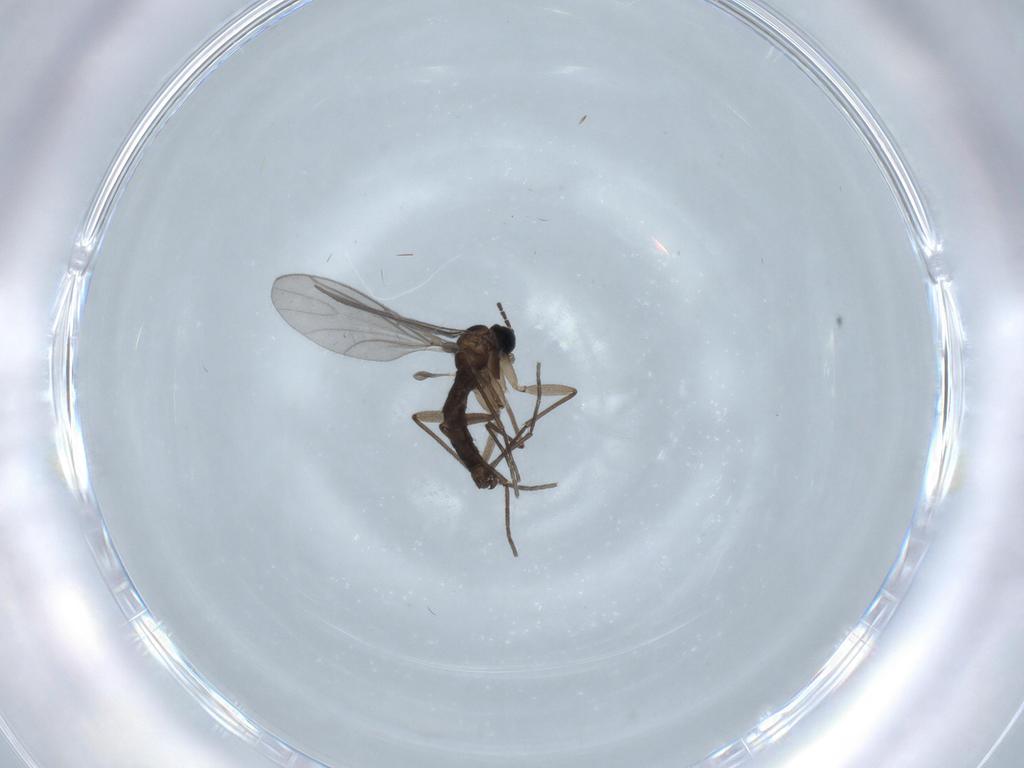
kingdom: Animalia
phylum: Arthropoda
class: Insecta
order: Diptera
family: Sciaridae
